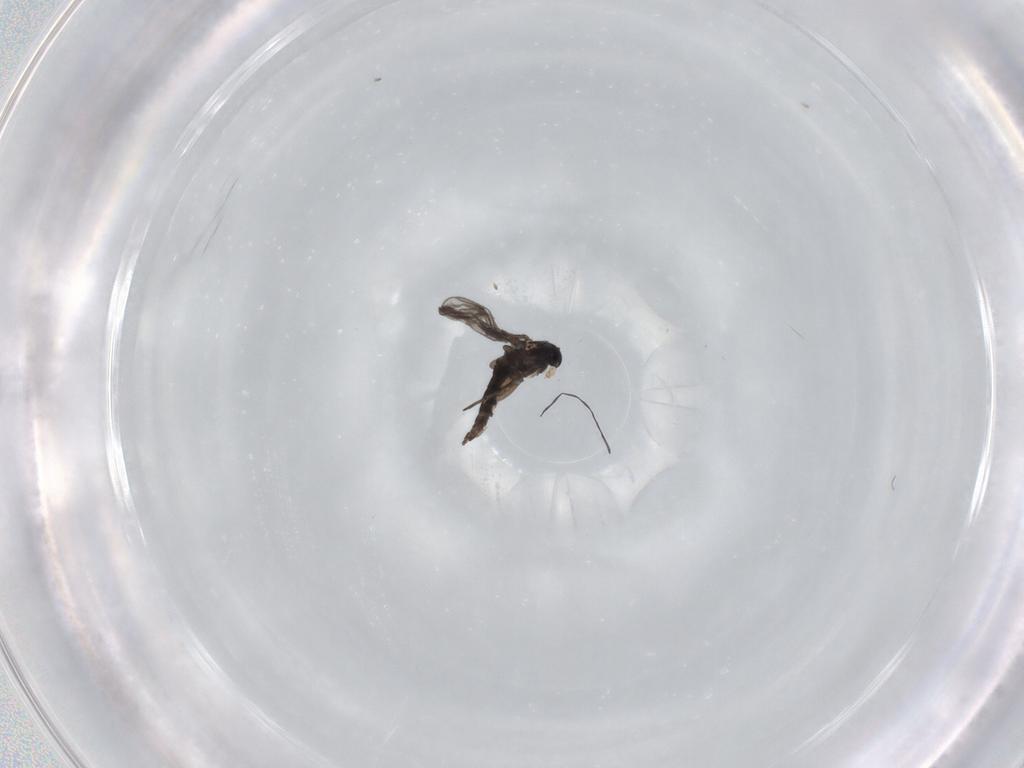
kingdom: Animalia
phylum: Arthropoda
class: Insecta
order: Diptera
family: Sciaridae
